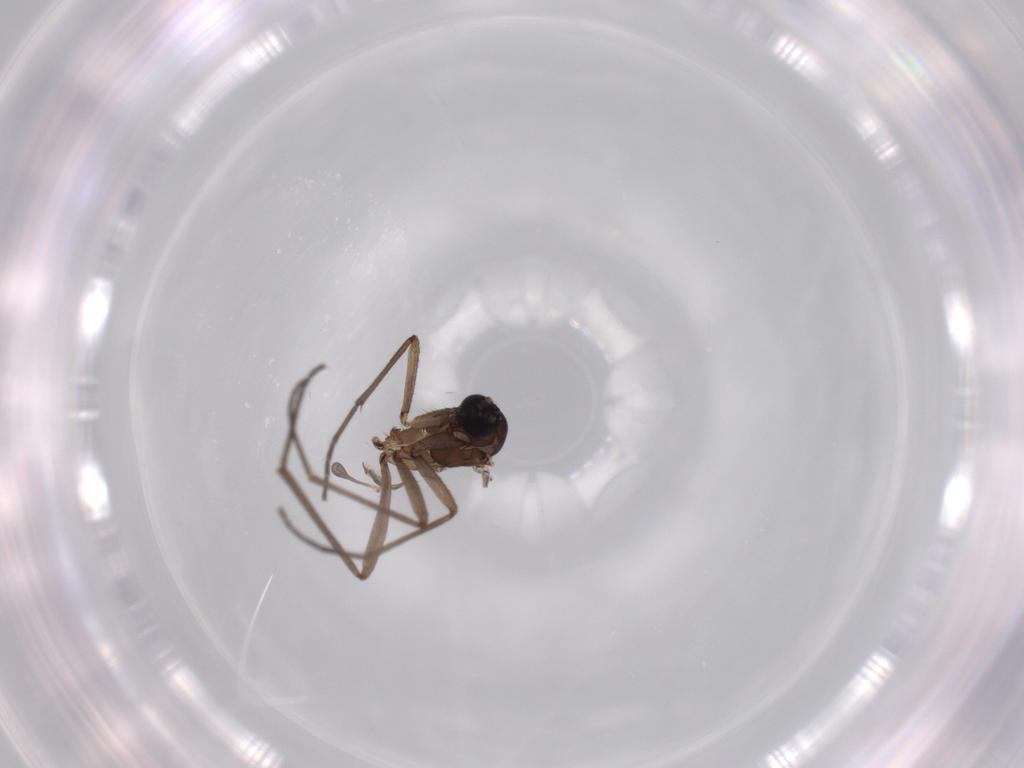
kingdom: Animalia
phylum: Arthropoda
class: Insecta
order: Diptera
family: Sciaridae
